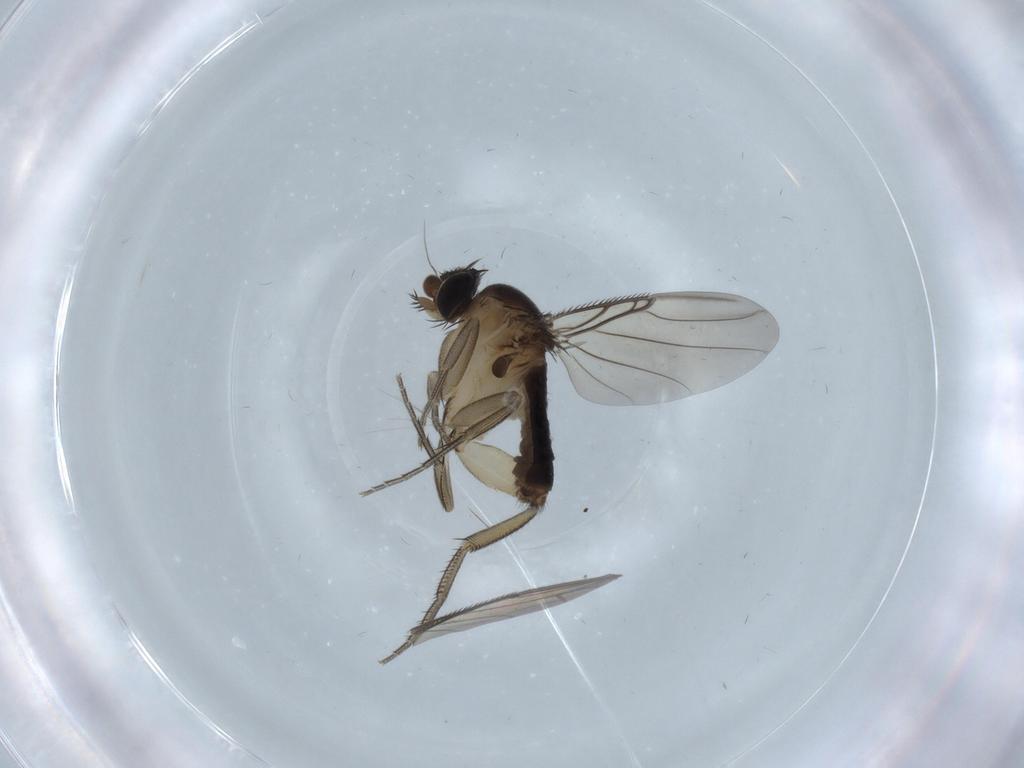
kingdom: Animalia
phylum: Arthropoda
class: Insecta
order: Diptera
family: Phoridae
